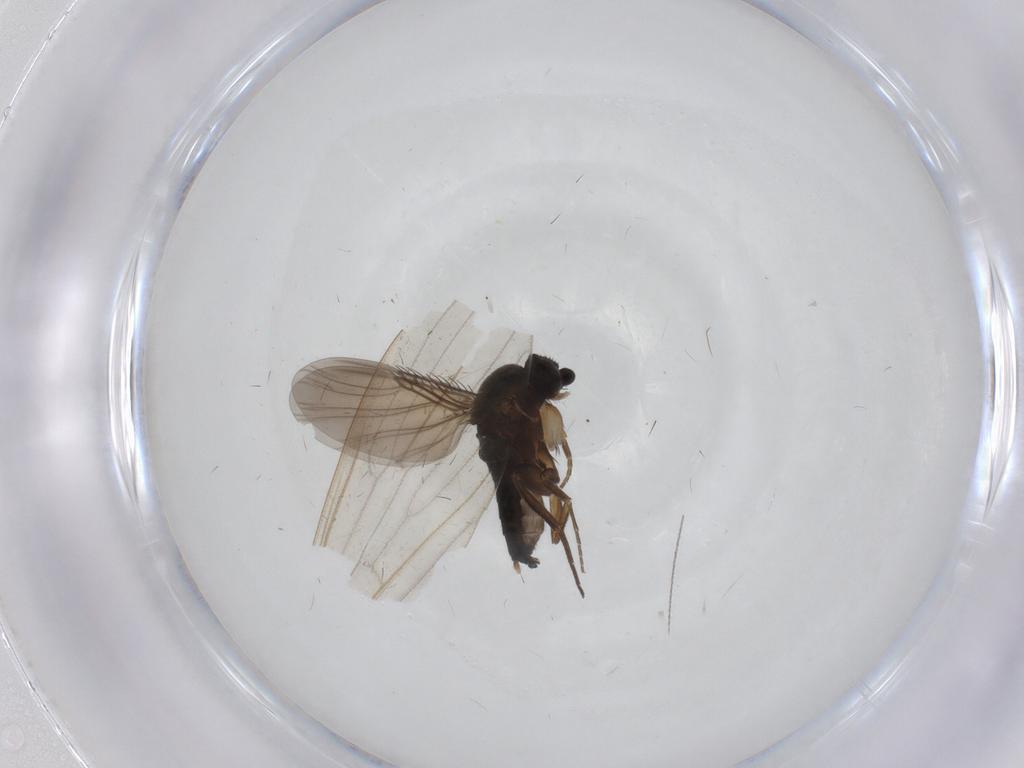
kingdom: Animalia
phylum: Arthropoda
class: Insecta
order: Diptera
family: Phoridae
